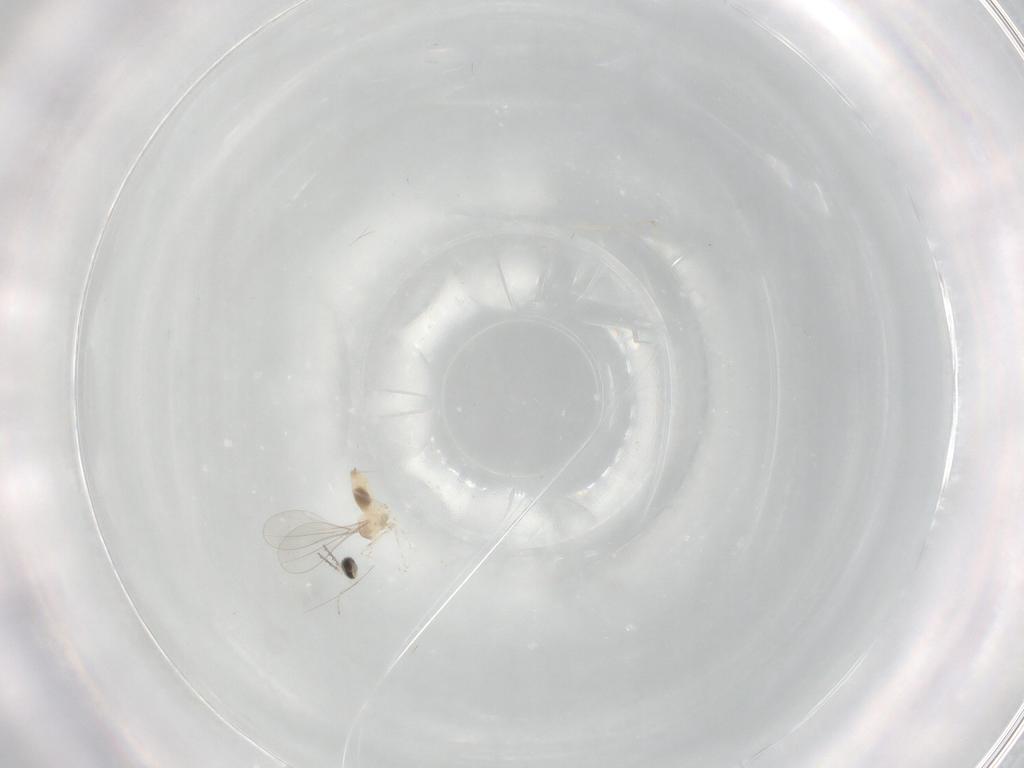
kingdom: Animalia
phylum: Arthropoda
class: Insecta
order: Diptera
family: Cecidomyiidae
